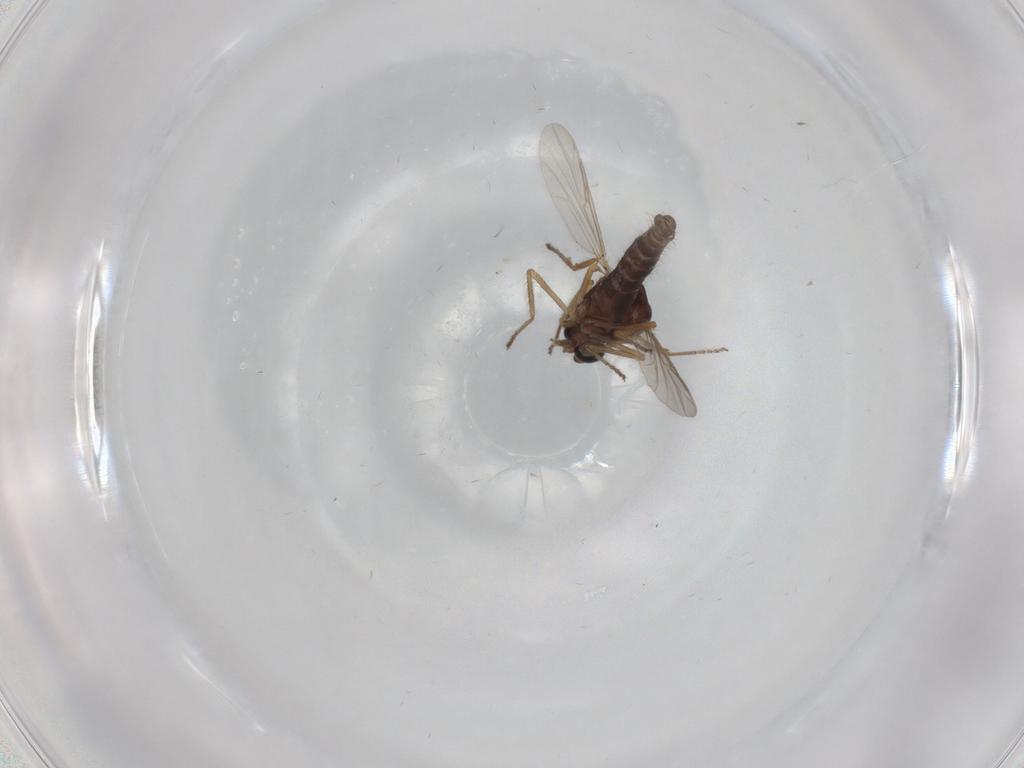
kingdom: Animalia
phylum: Arthropoda
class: Insecta
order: Diptera
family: Ceratopogonidae
